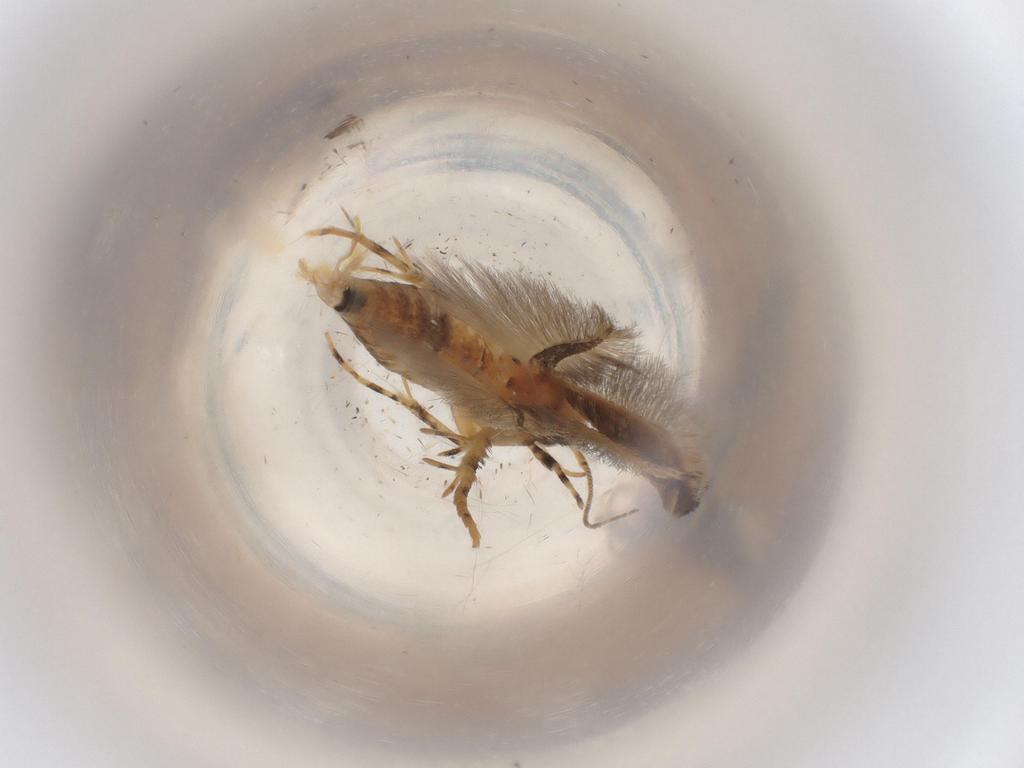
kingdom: Animalia
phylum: Arthropoda
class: Insecta
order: Lepidoptera
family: Cosmopterigidae
